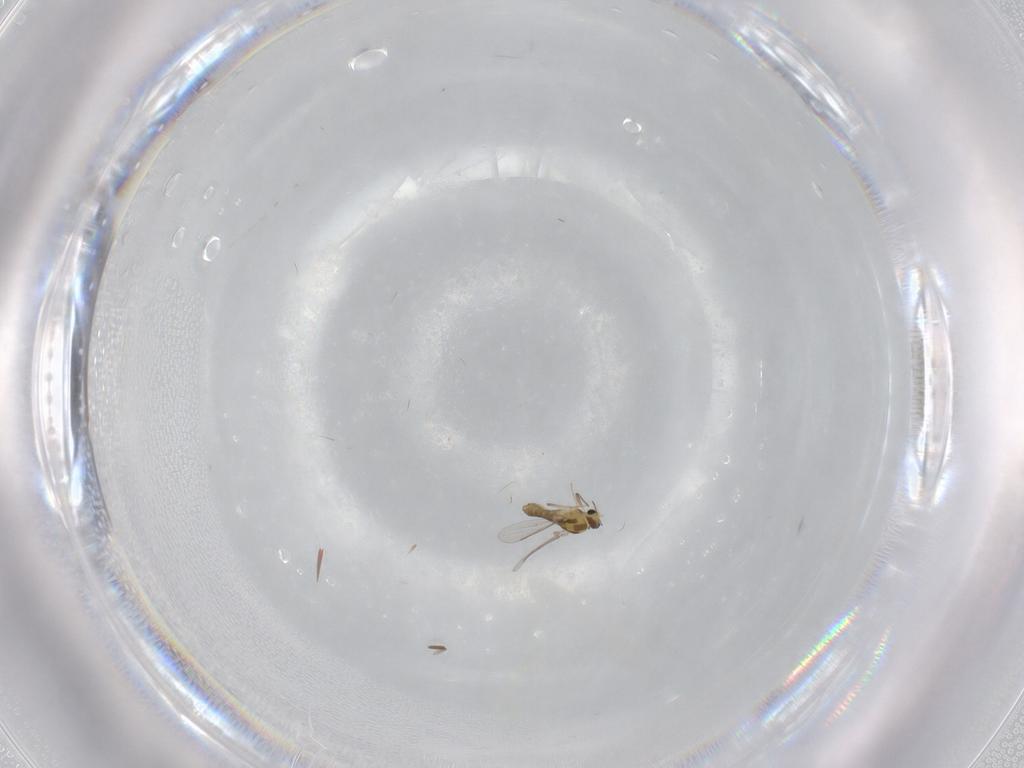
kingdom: Animalia
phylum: Arthropoda
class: Insecta
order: Diptera
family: Chironomidae
